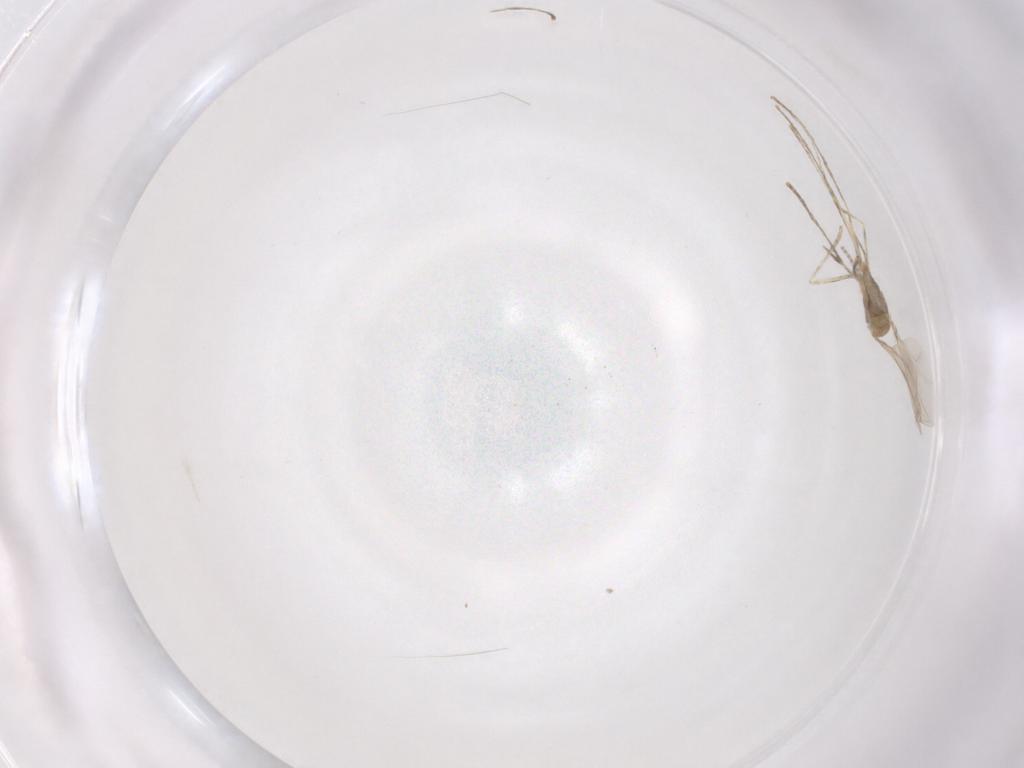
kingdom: Animalia
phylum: Arthropoda
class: Insecta
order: Diptera
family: Cecidomyiidae
